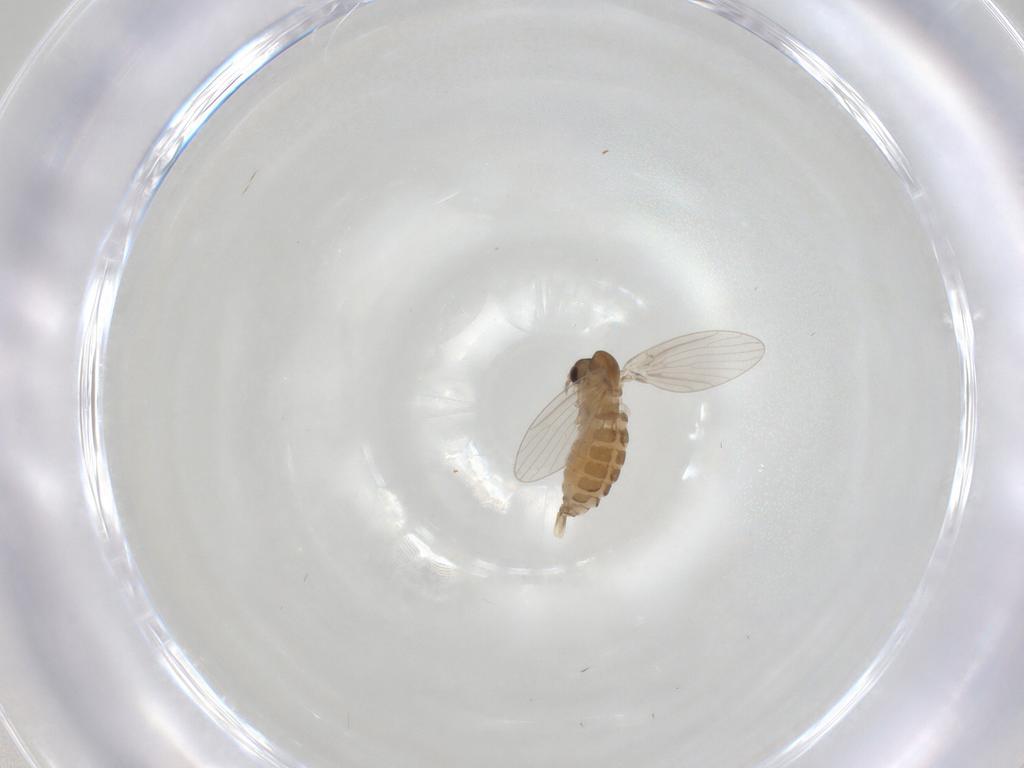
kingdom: Animalia
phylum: Arthropoda
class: Insecta
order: Diptera
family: Psychodidae
